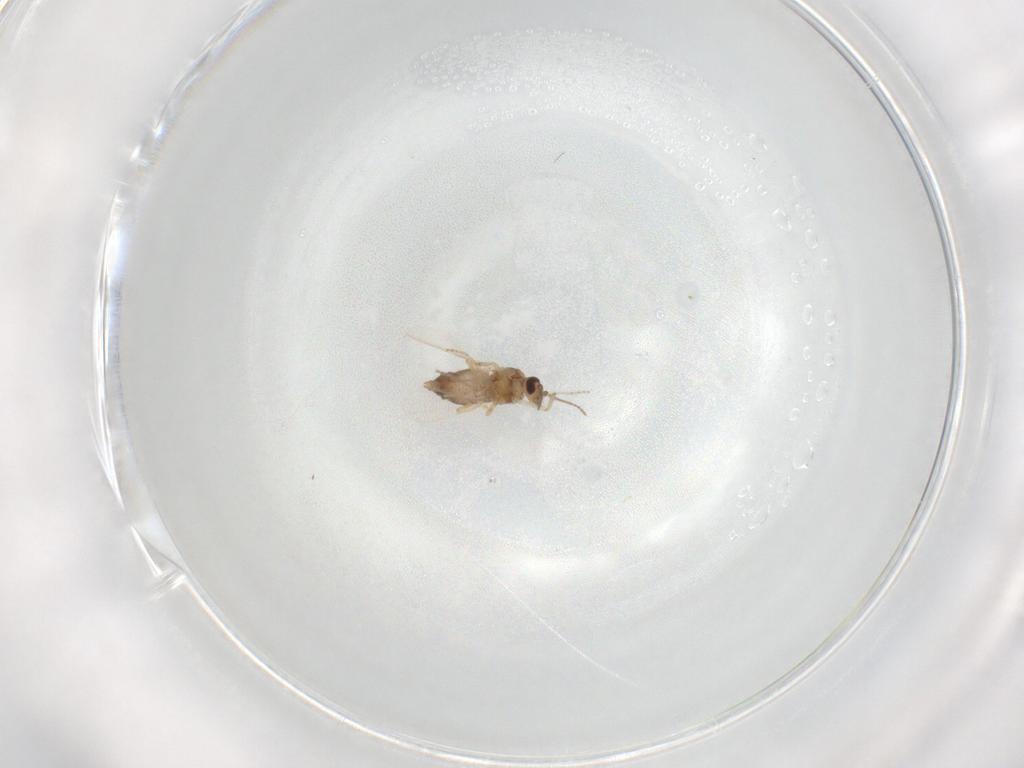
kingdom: Animalia
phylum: Arthropoda
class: Insecta
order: Diptera
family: Ceratopogonidae
